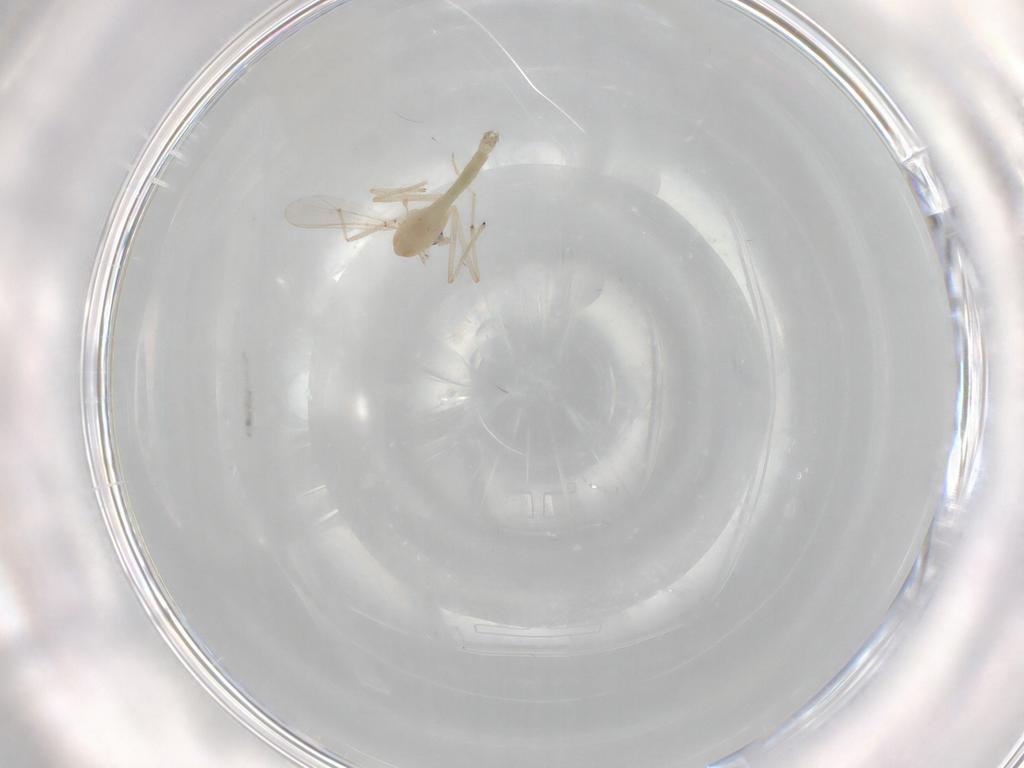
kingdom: Animalia
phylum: Arthropoda
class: Insecta
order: Diptera
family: Chironomidae
